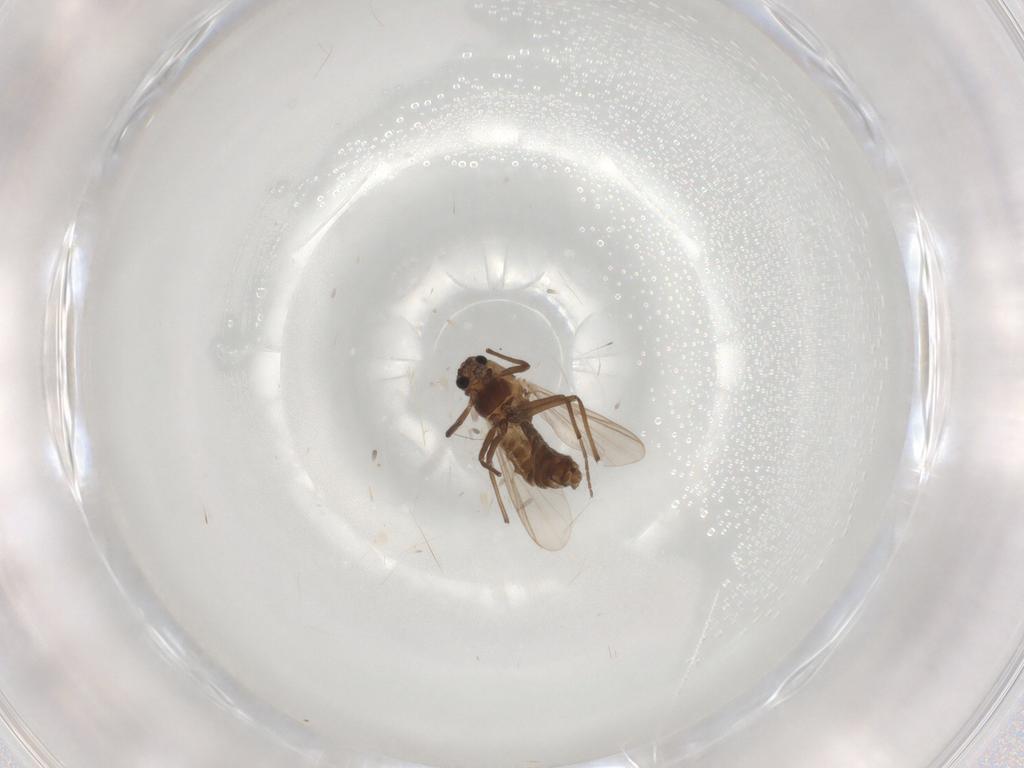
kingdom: Animalia
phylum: Arthropoda
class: Insecta
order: Diptera
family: Chironomidae
